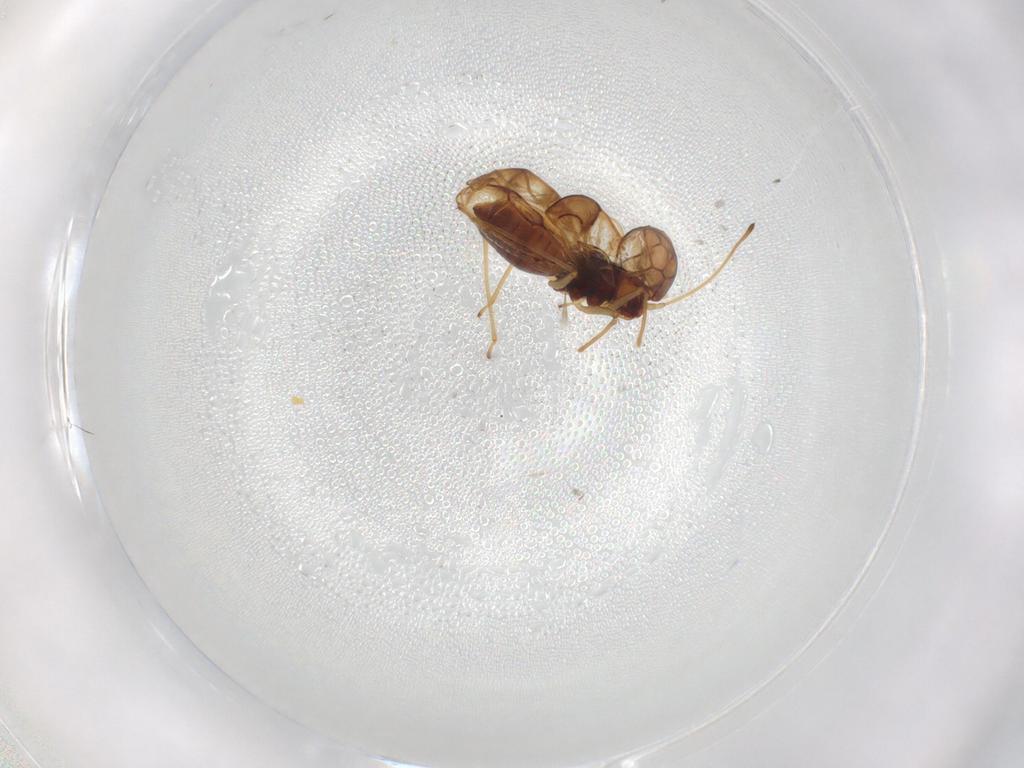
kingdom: Animalia
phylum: Arthropoda
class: Insecta
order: Hemiptera
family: Tingidae
